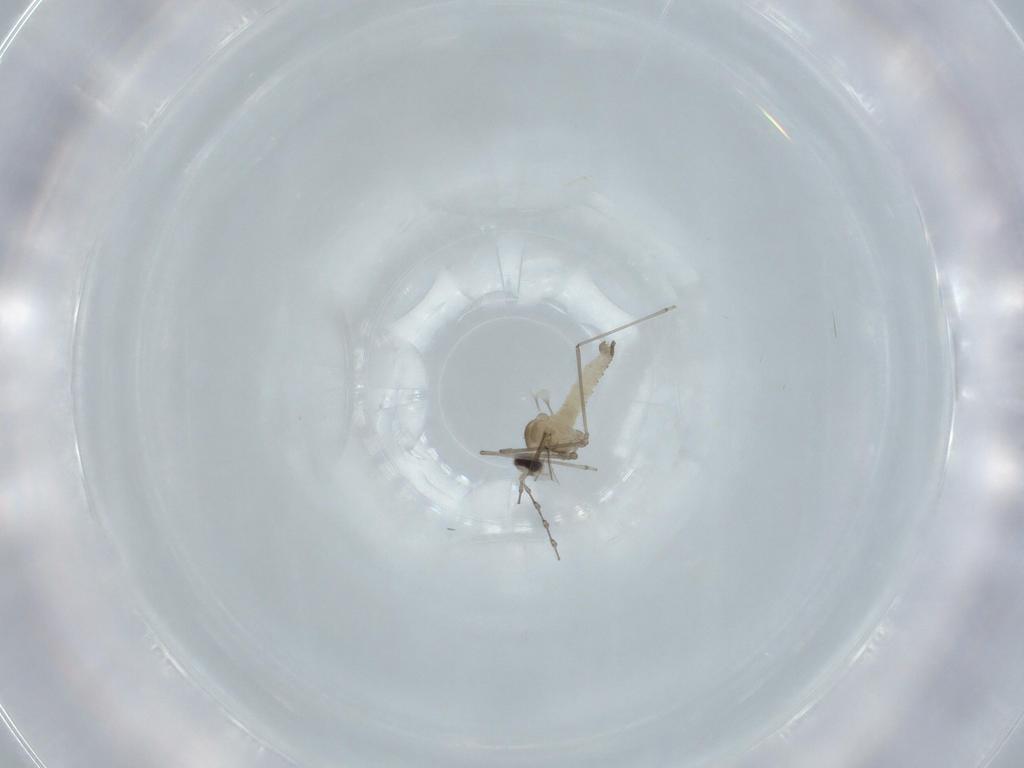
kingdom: Animalia
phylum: Arthropoda
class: Insecta
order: Diptera
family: Cecidomyiidae
